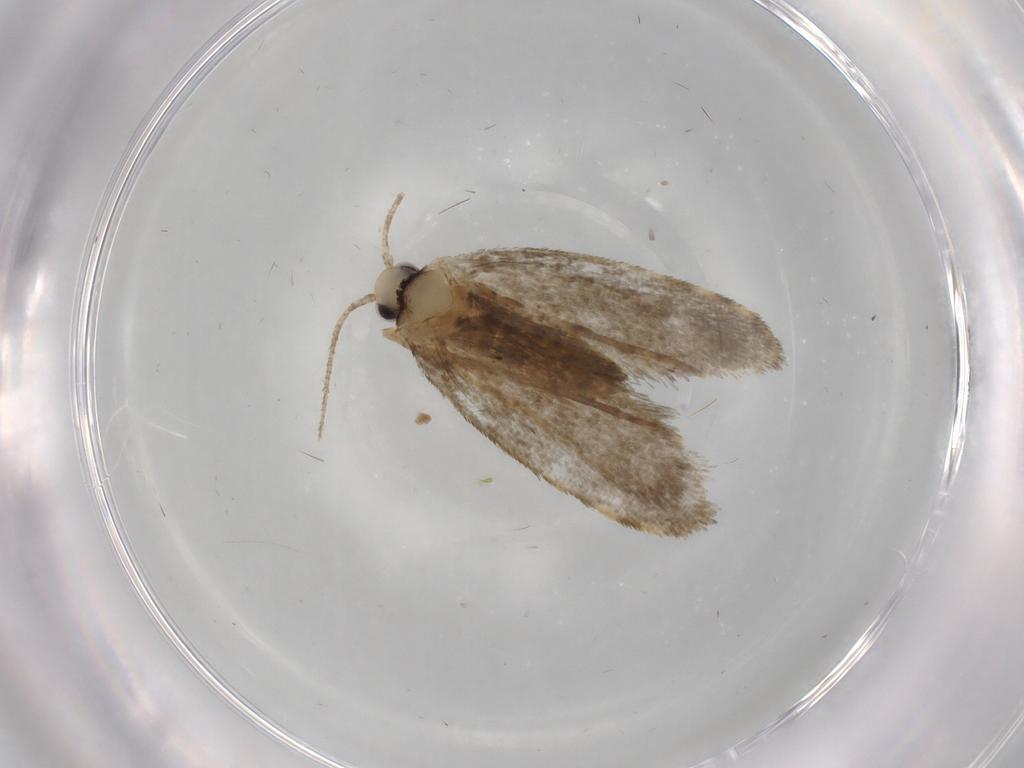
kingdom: Animalia
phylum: Arthropoda
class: Insecta
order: Lepidoptera
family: Psychidae
